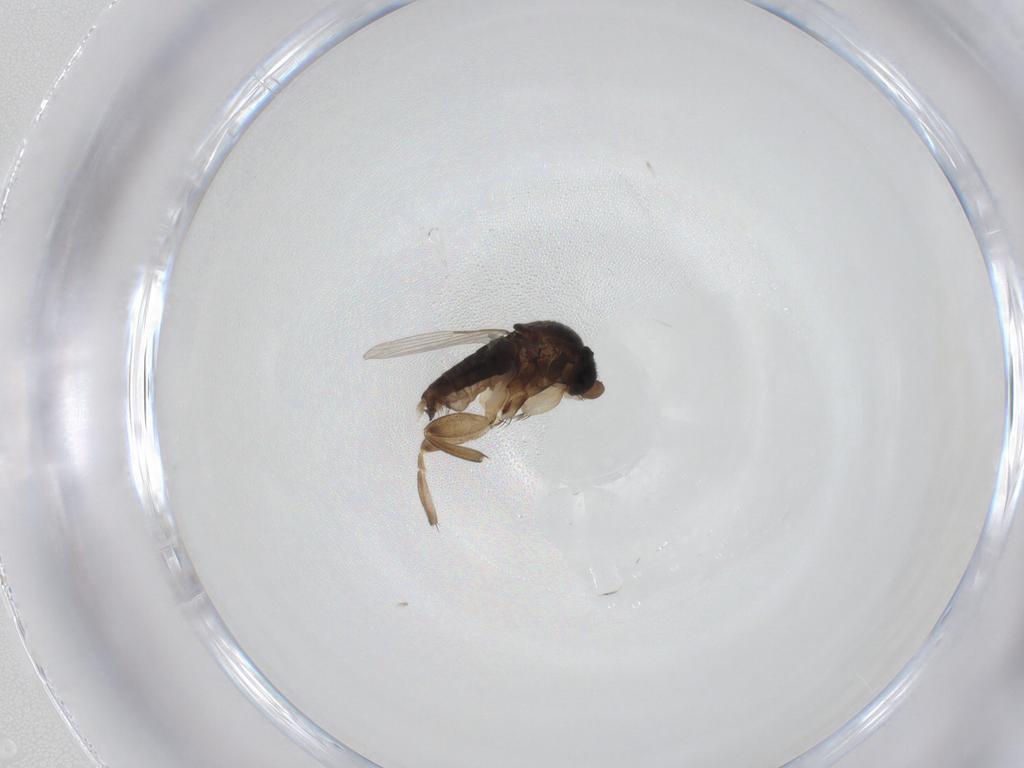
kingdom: Animalia
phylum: Arthropoda
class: Insecta
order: Diptera
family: Phoridae
